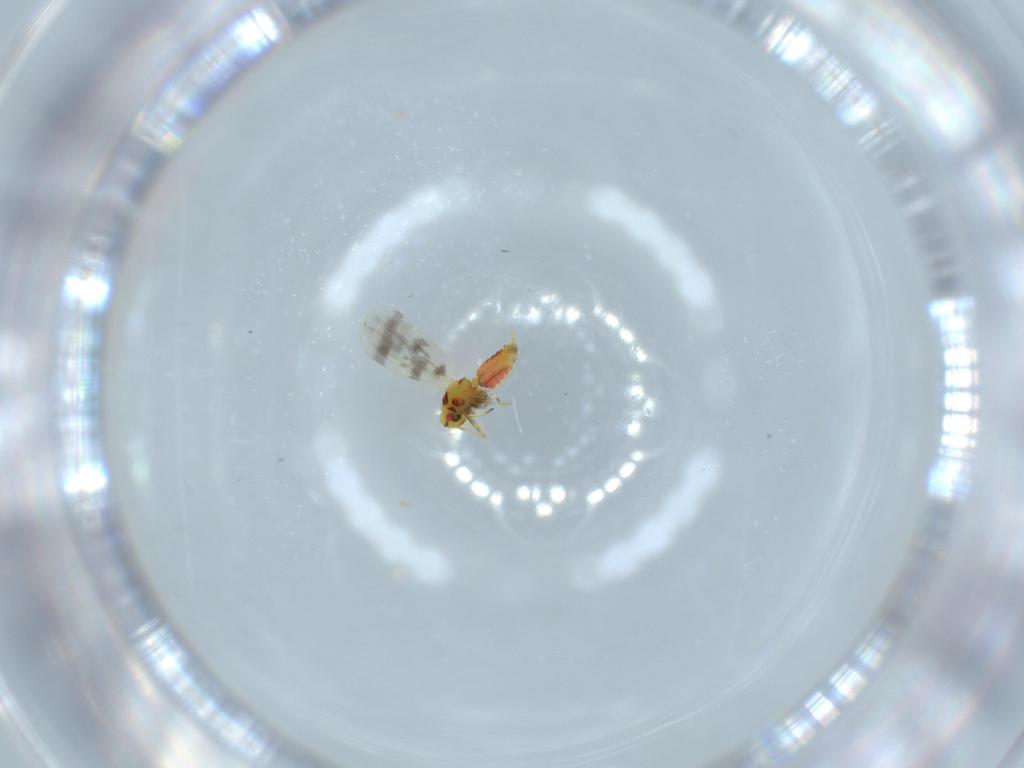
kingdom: Animalia
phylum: Arthropoda
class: Insecta
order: Hemiptera
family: Aleyrodidae
